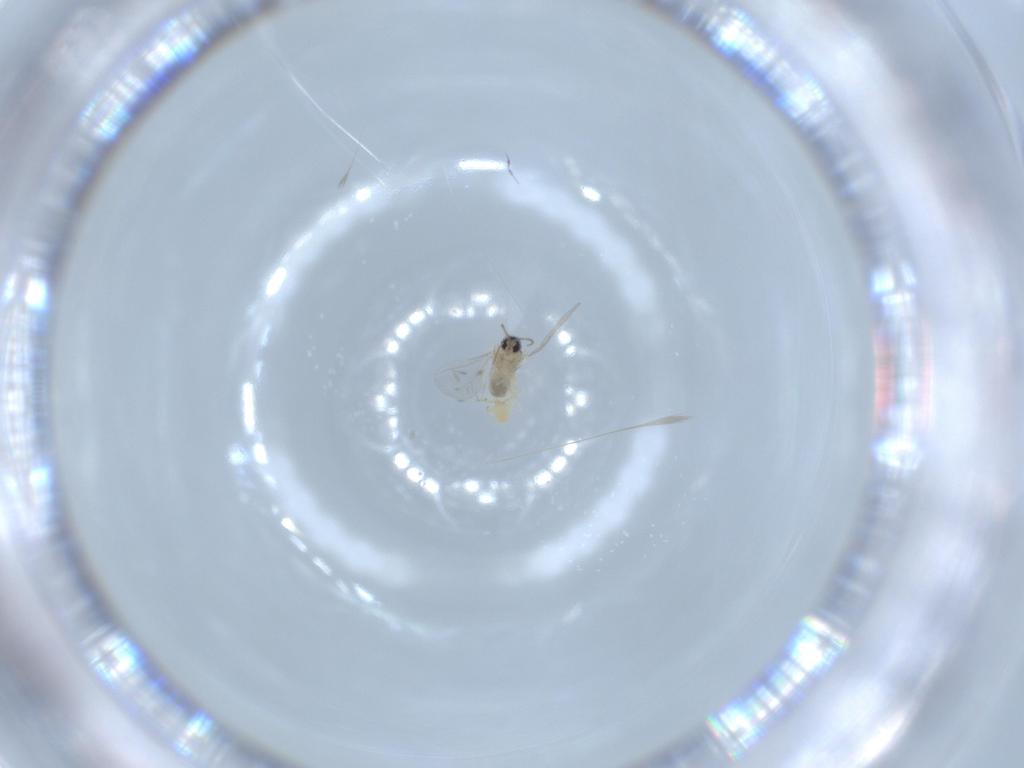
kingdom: Animalia
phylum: Arthropoda
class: Insecta
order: Diptera
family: Cecidomyiidae
